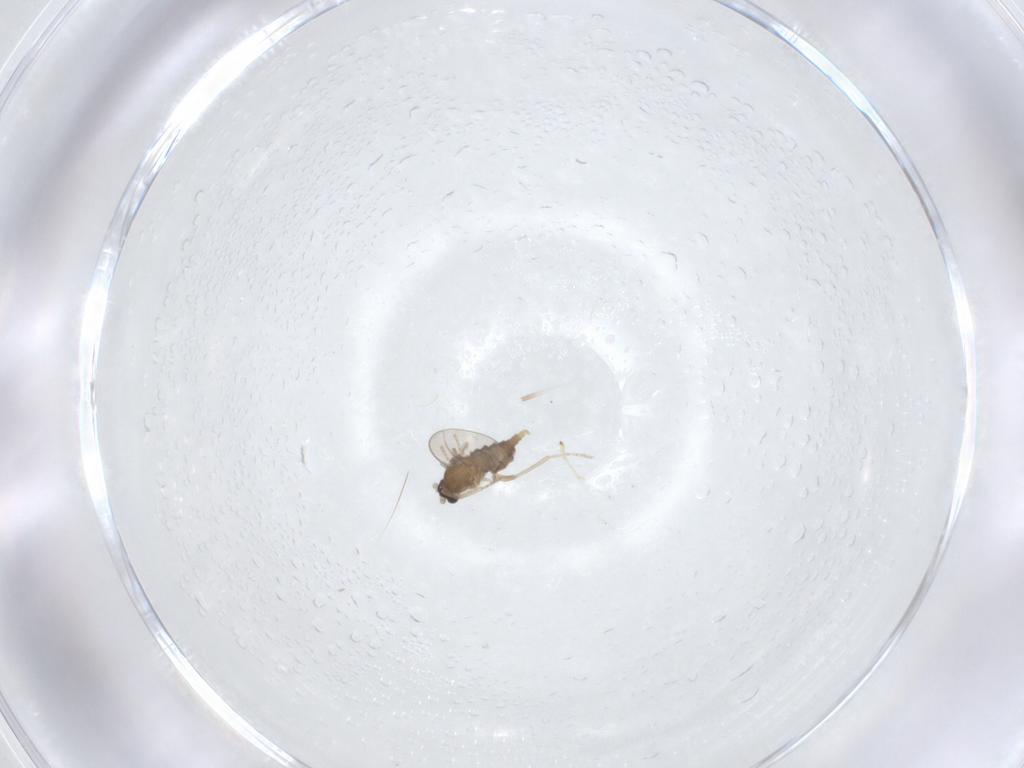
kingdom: Animalia
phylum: Arthropoda
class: Insecta
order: Diptera
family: Cecidomyiidae
